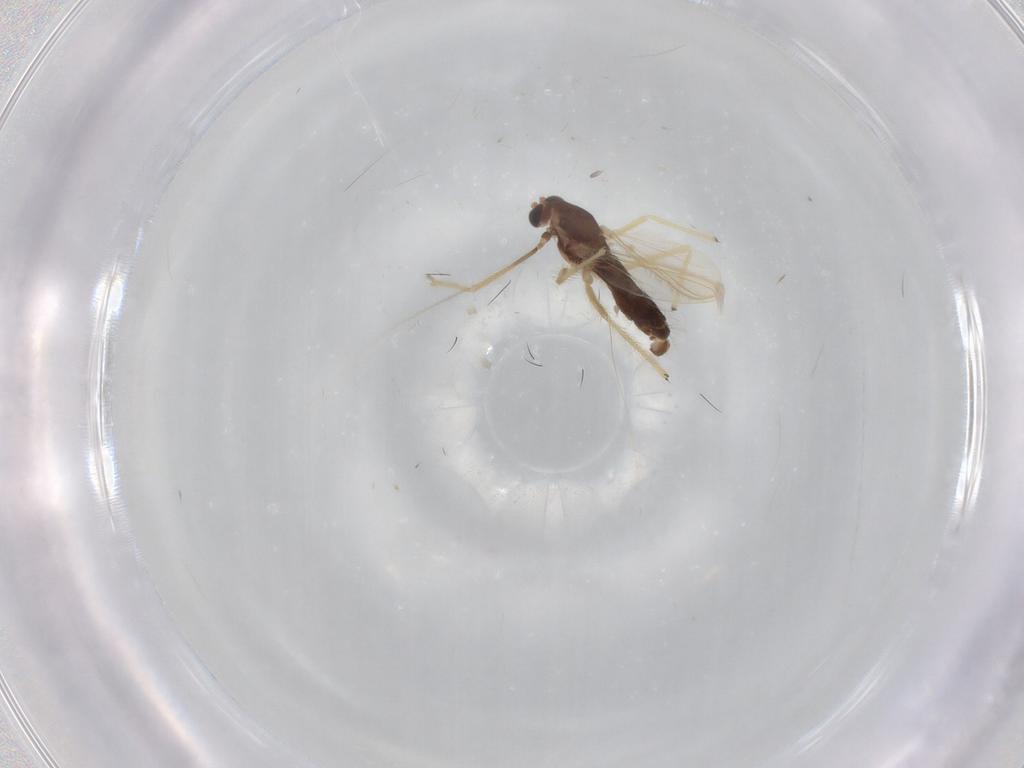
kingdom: Animalia
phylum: Arthropoda
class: Insecta
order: Diptera
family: Chironomidae
